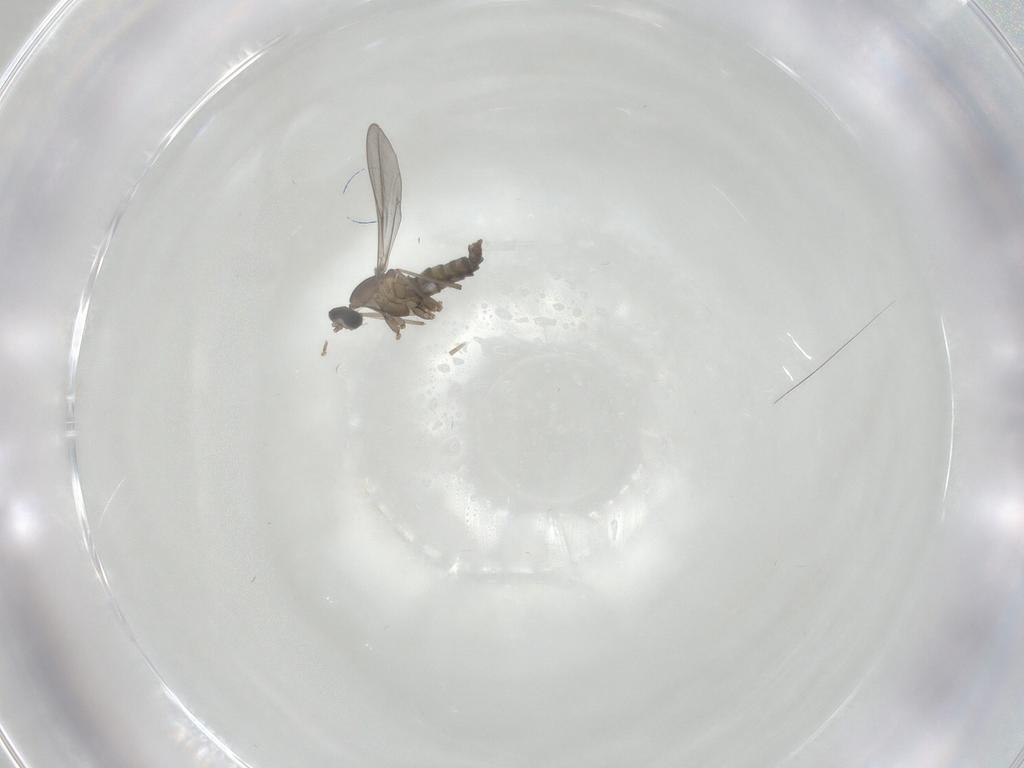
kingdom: Animalia
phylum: Arthropoda
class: Insecta
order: Diptera
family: Cecidomyiidae
